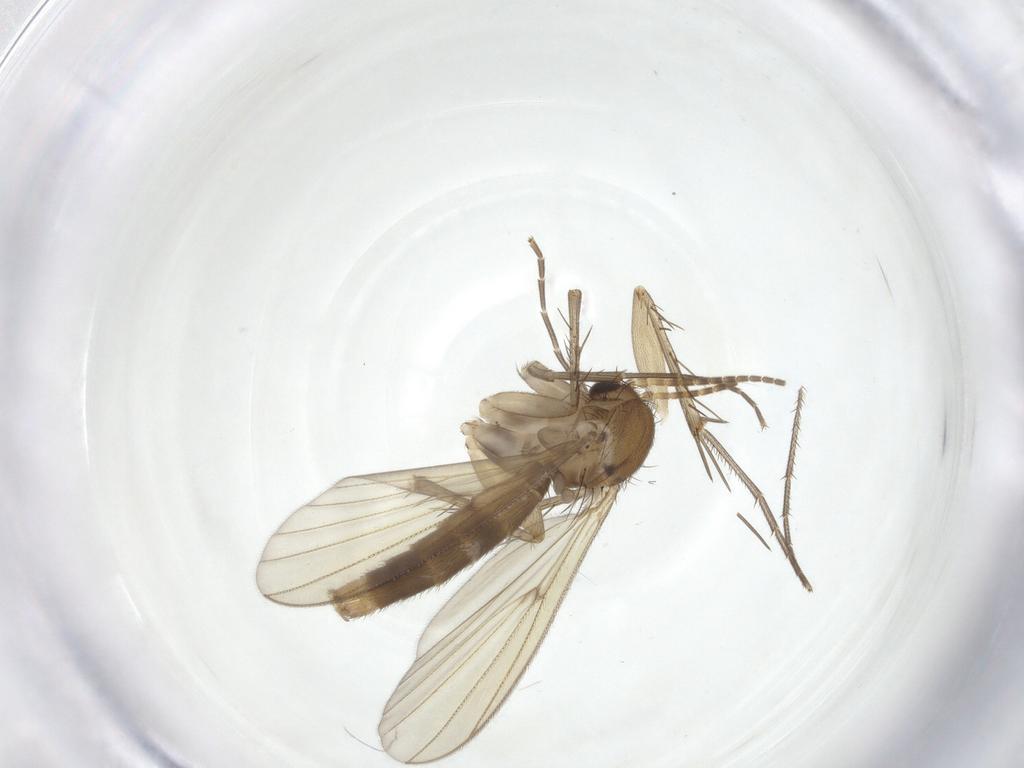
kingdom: Animalia
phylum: Arthropoda
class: Insecta
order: Diptera
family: Mycetophilidae
